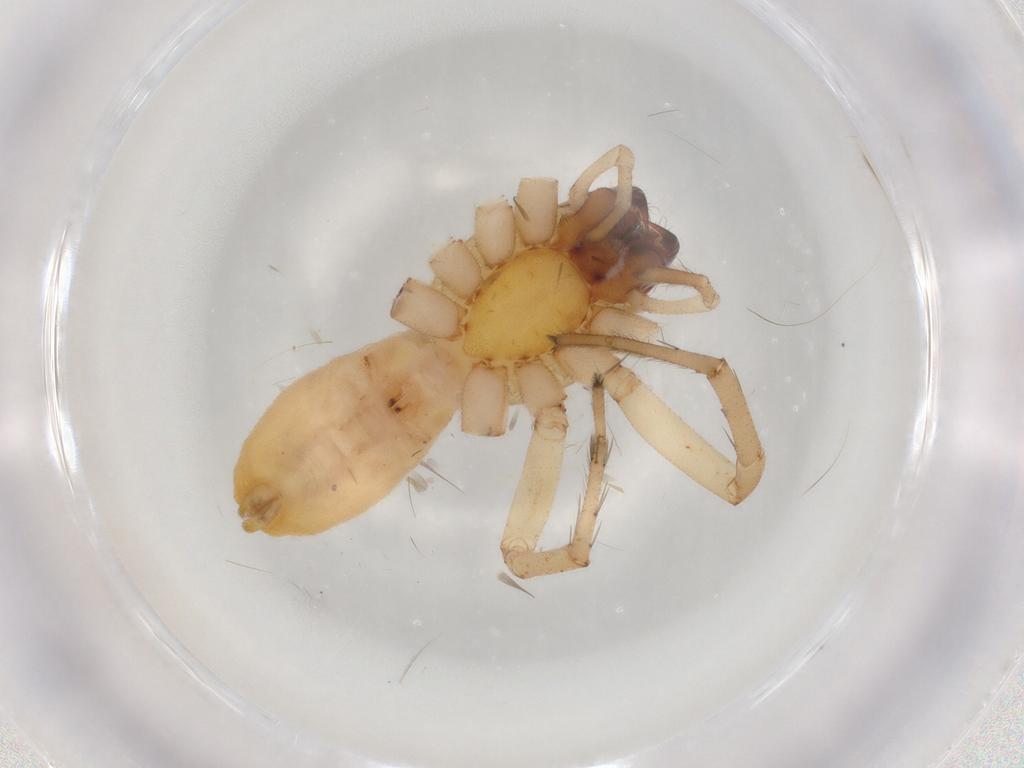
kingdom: Animalia
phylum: Arthropoda
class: Arachnida
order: Araneae
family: Anyphaenidae
